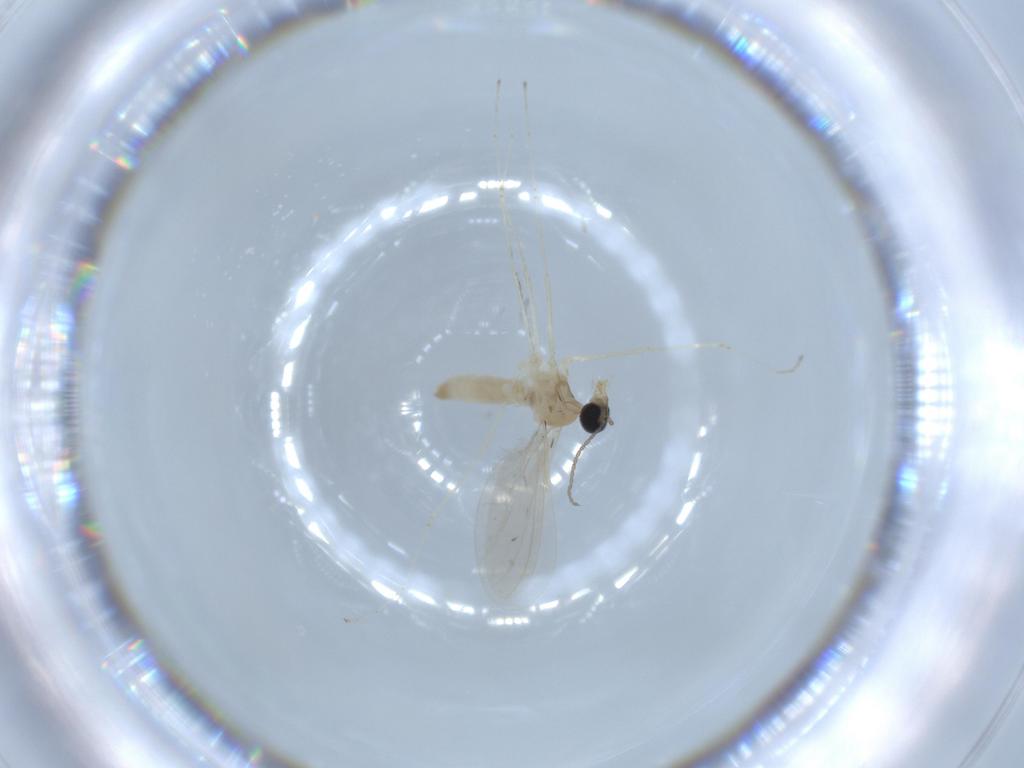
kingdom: Animalia
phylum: Arthropoda
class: Insecta
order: Diptera
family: Cecidomyiidae
